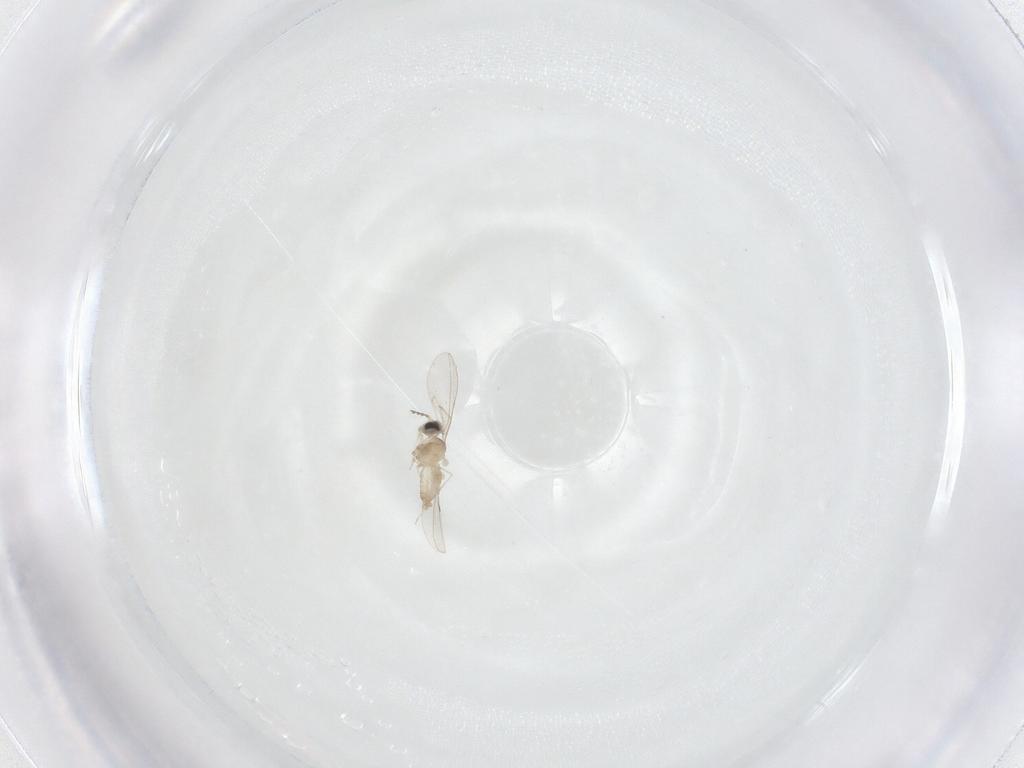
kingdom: Animalia
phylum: Arthropoda
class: Insecta
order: Diptera
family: Cecidomyiidae
